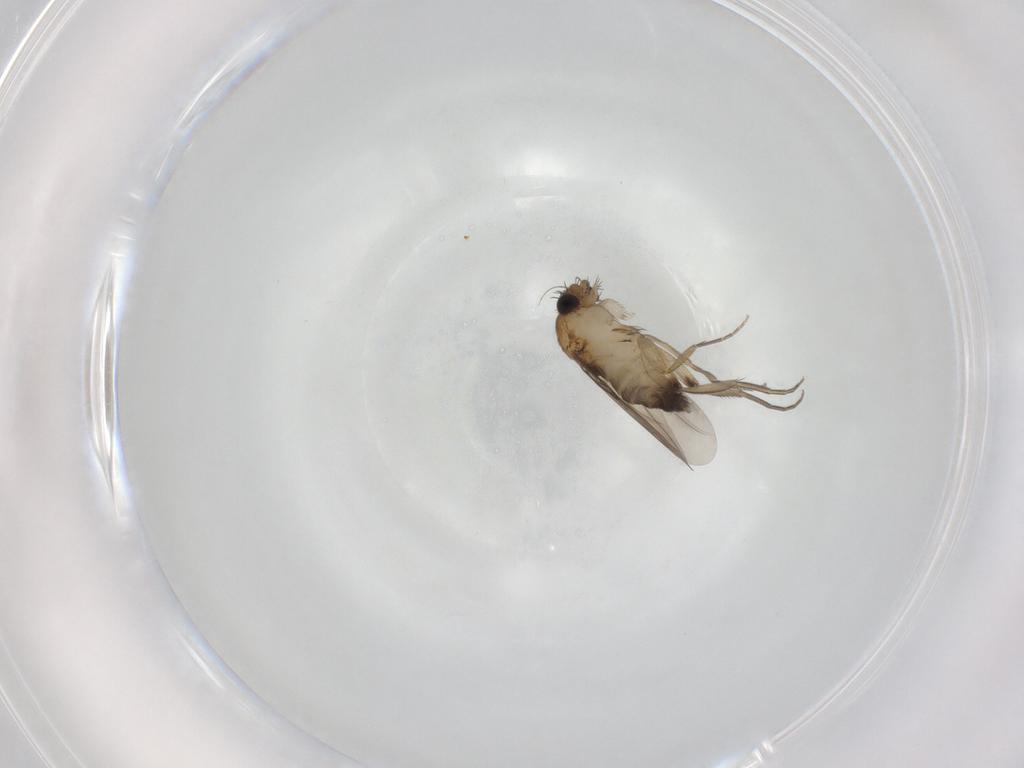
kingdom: Animalia
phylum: Arthropoda
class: Insecta
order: Diptera
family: Phoridae
